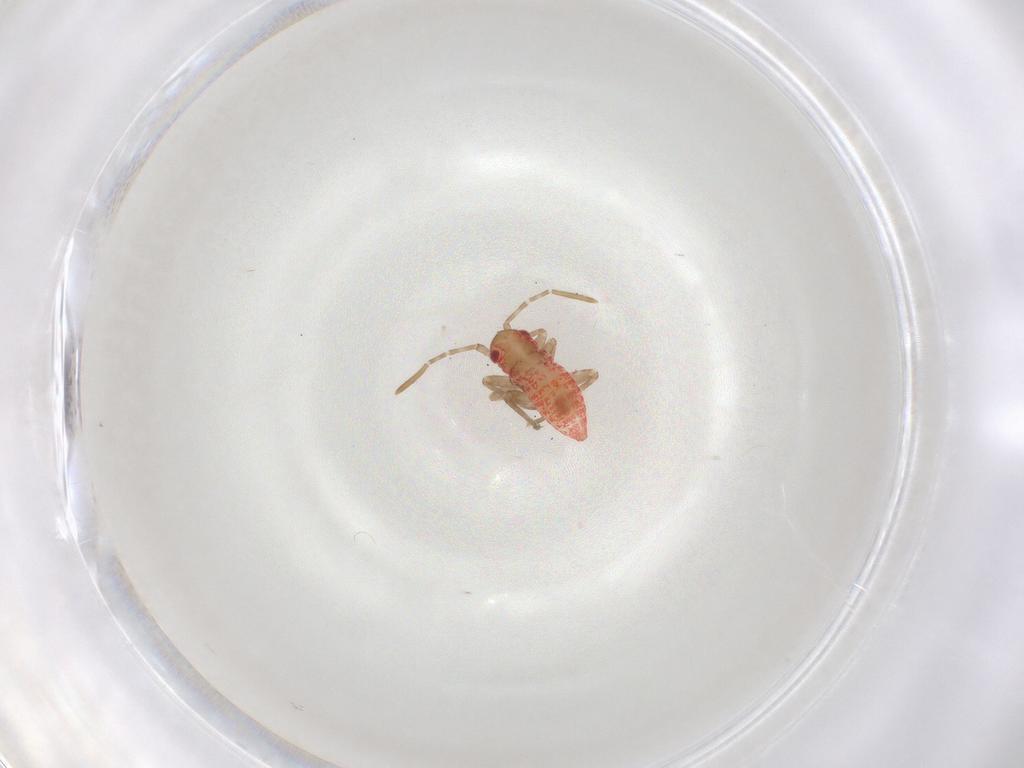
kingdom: Animalia
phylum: Arthropoda
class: Insecta
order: Hemiptera
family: Miridae
